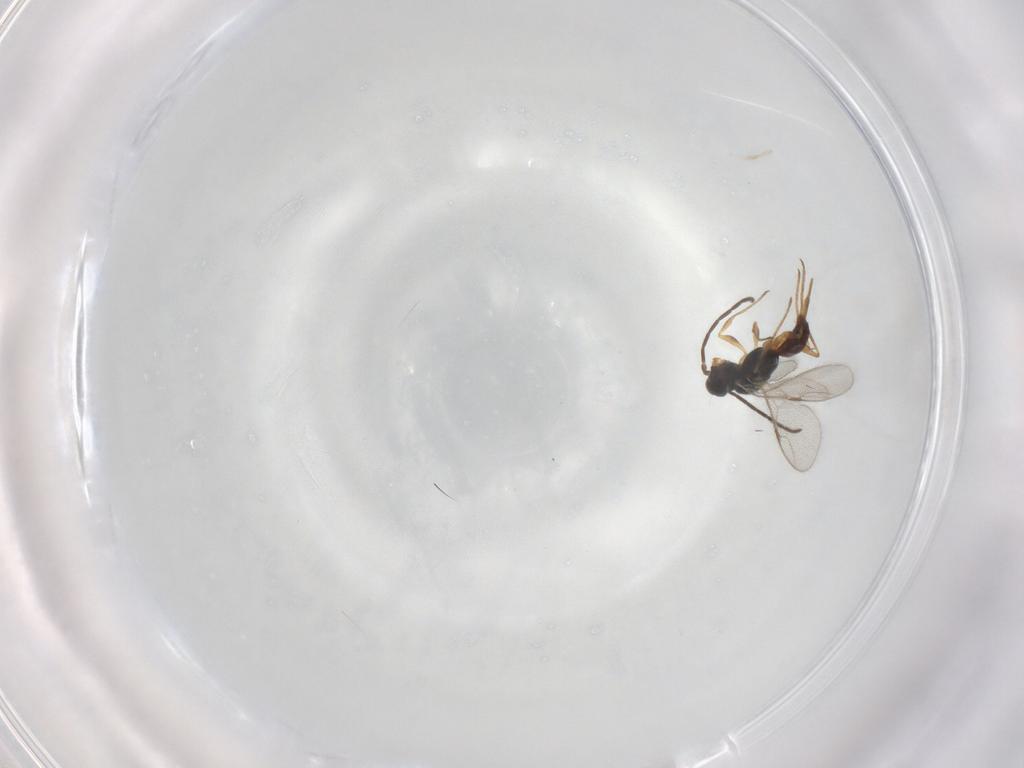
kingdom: Animalia
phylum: Arthropoda
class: Insecta
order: Hymenoptera
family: Dryinidae
